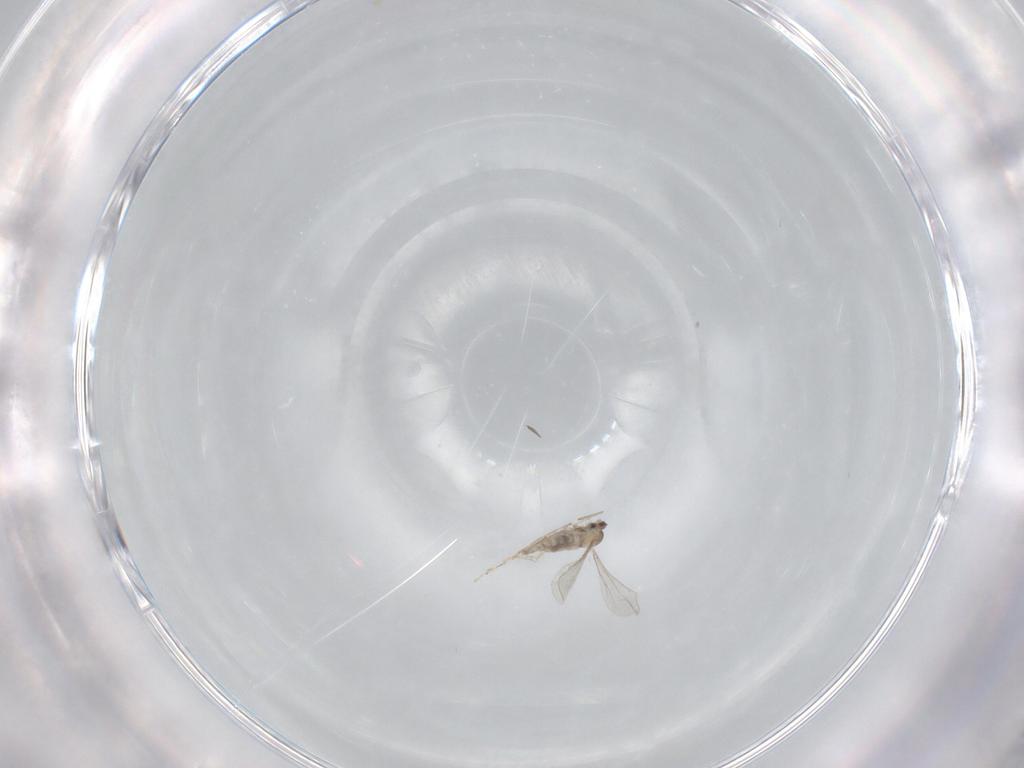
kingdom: Animalia
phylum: Arthropoda
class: Insecta
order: Diptera
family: Cecidomyiidae
